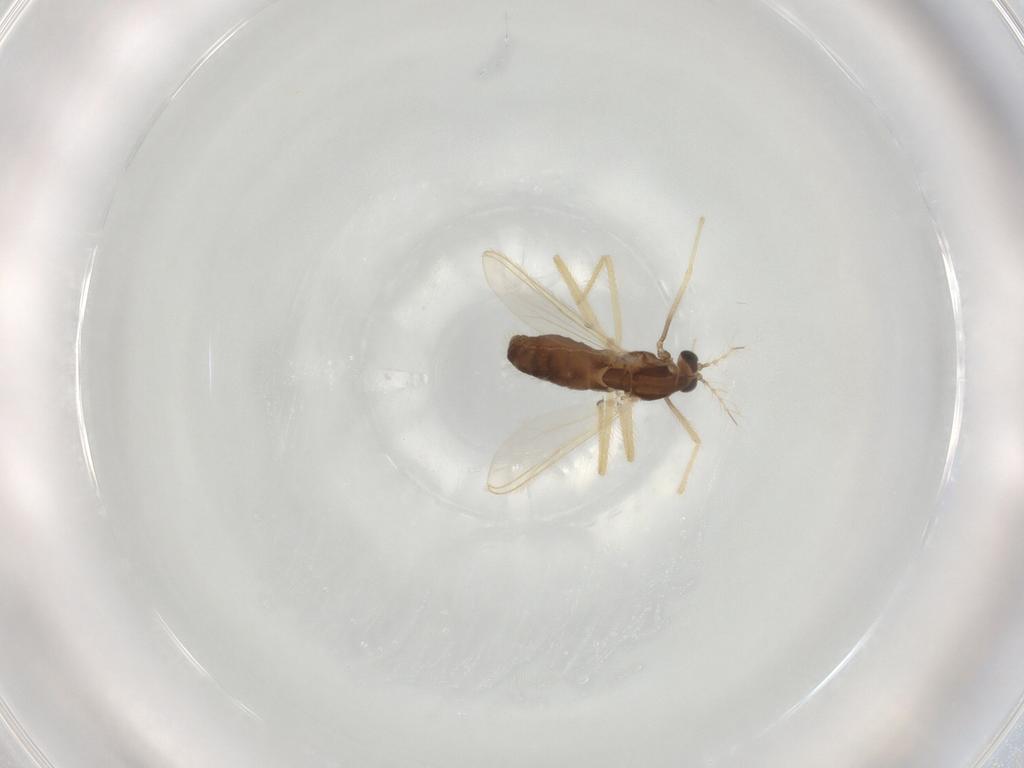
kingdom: Animalia
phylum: Arthropoda
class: Insecta
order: Diptera
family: Chironomidae
